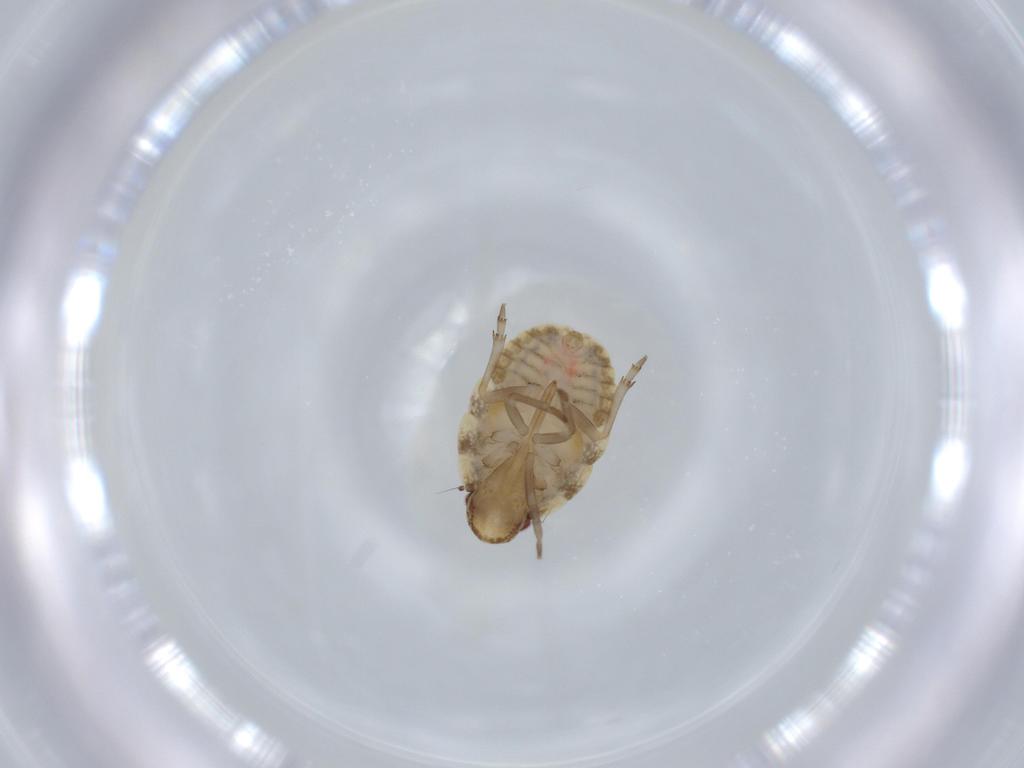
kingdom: Animalia
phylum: Arthropoda
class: Insecta
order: Hemiptera
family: Flatidae
